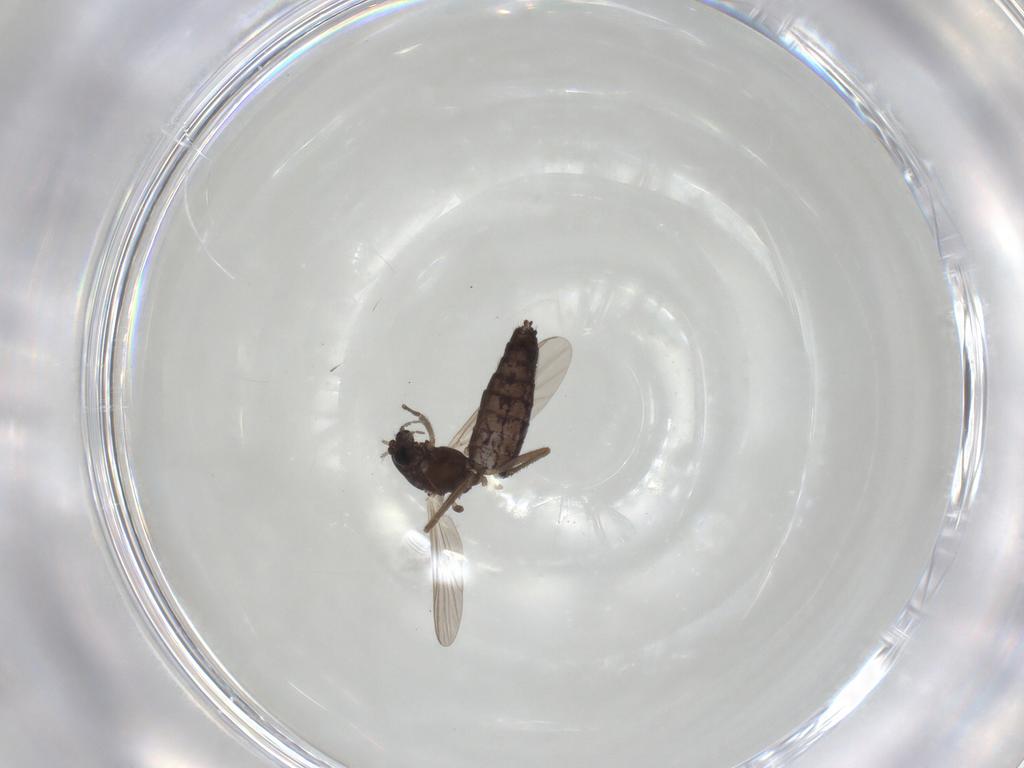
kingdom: Animalia
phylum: Arthropoda
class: Insecta
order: Diptera
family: Chironomidae
